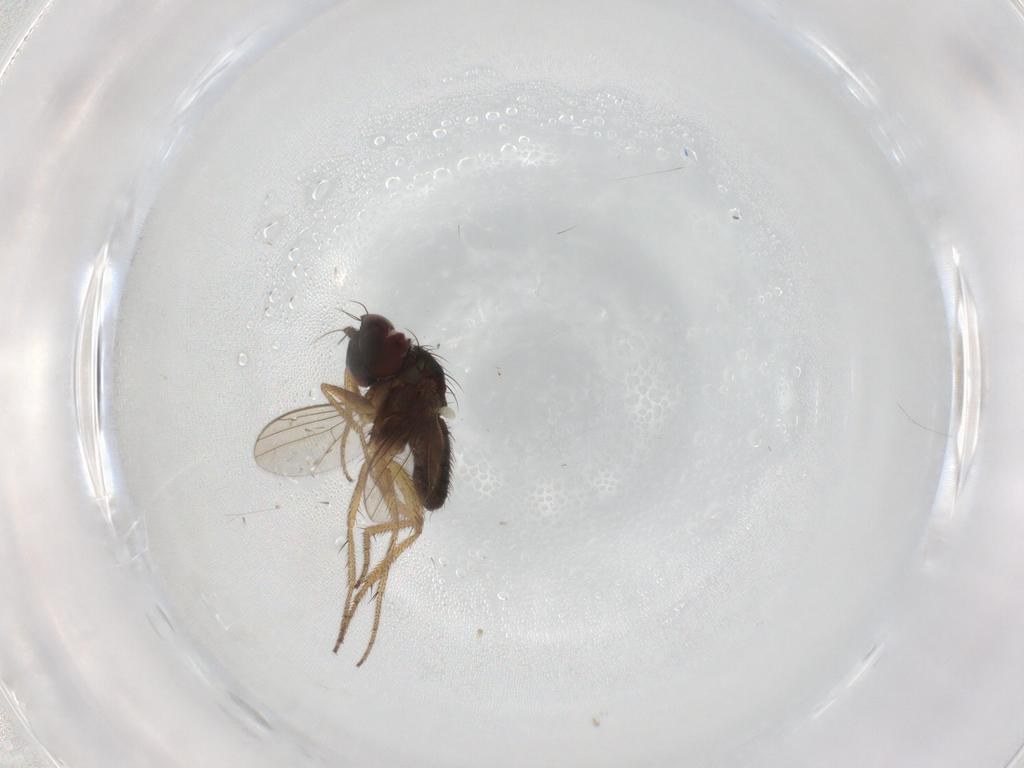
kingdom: Animalia
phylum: Arthropoda
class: Insecta
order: Diptera
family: Chironomidae
